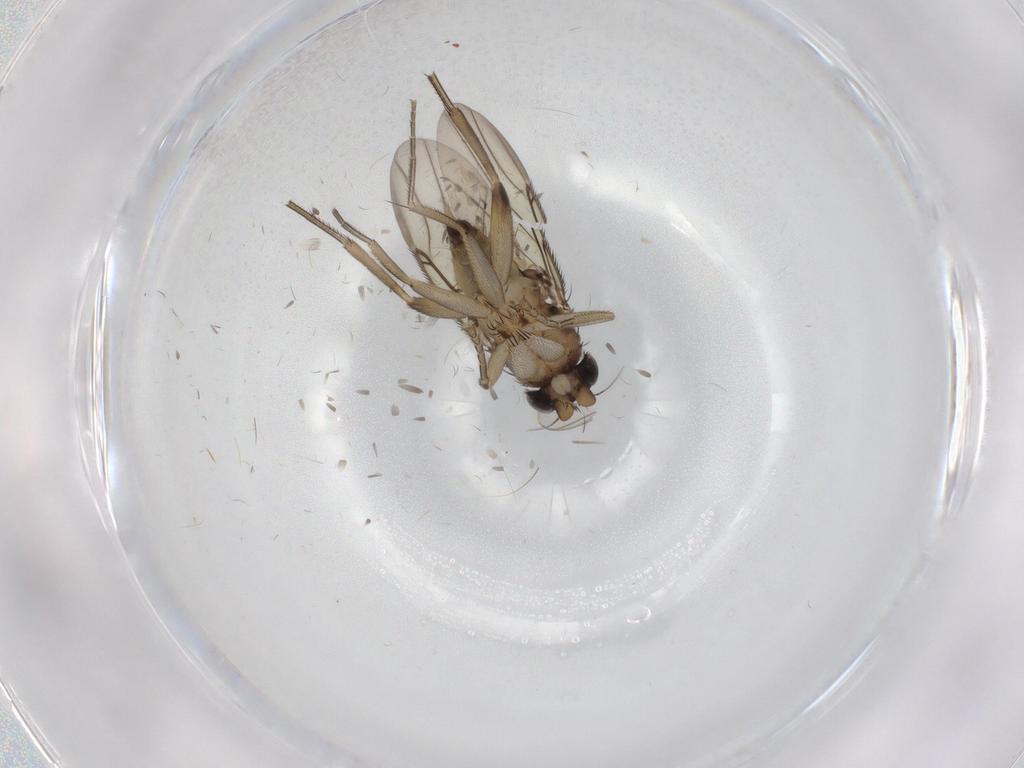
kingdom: Animalia
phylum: Arthropoda
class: Insecta
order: Diptera
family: Phoridae
